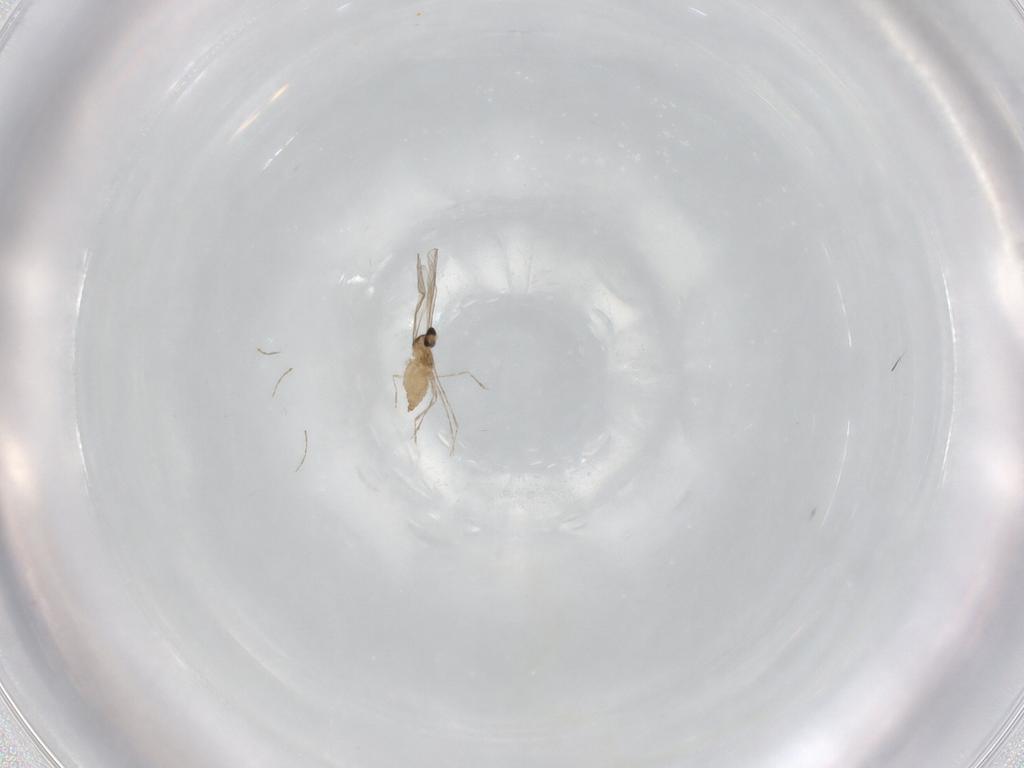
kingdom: Animalia
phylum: Arthropoda
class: Insecta
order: Diptera
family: Cecidomyiidae
